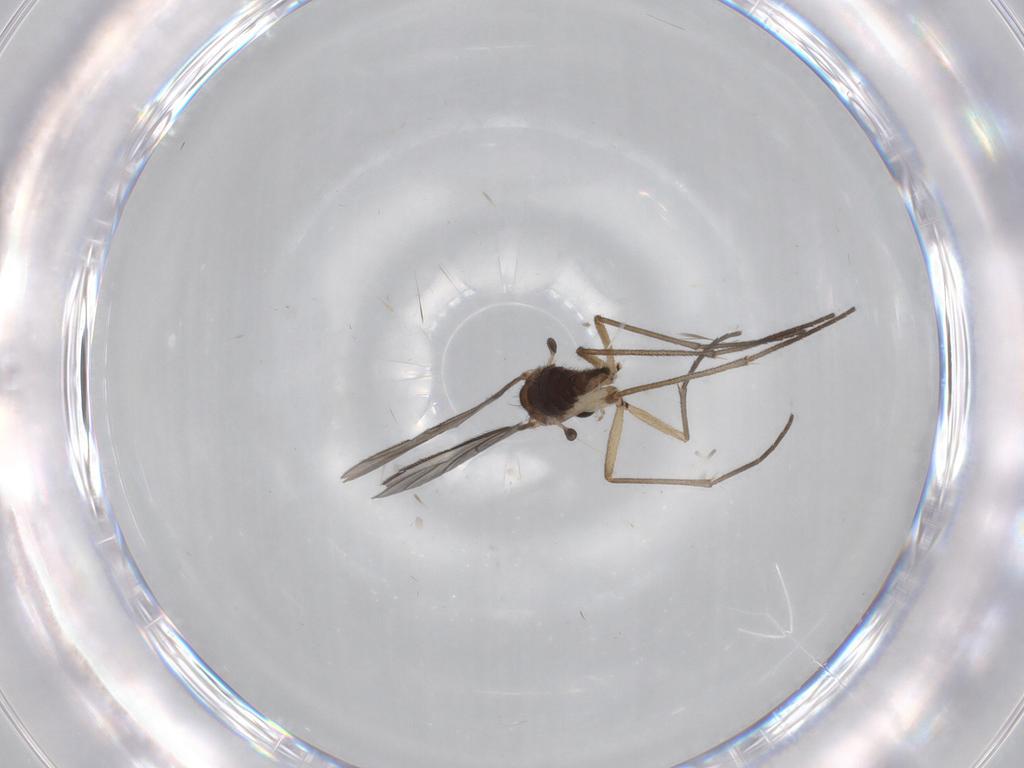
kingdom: Animalia
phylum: Arthropoda
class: Insecta
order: Diptera
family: Sciaridae
